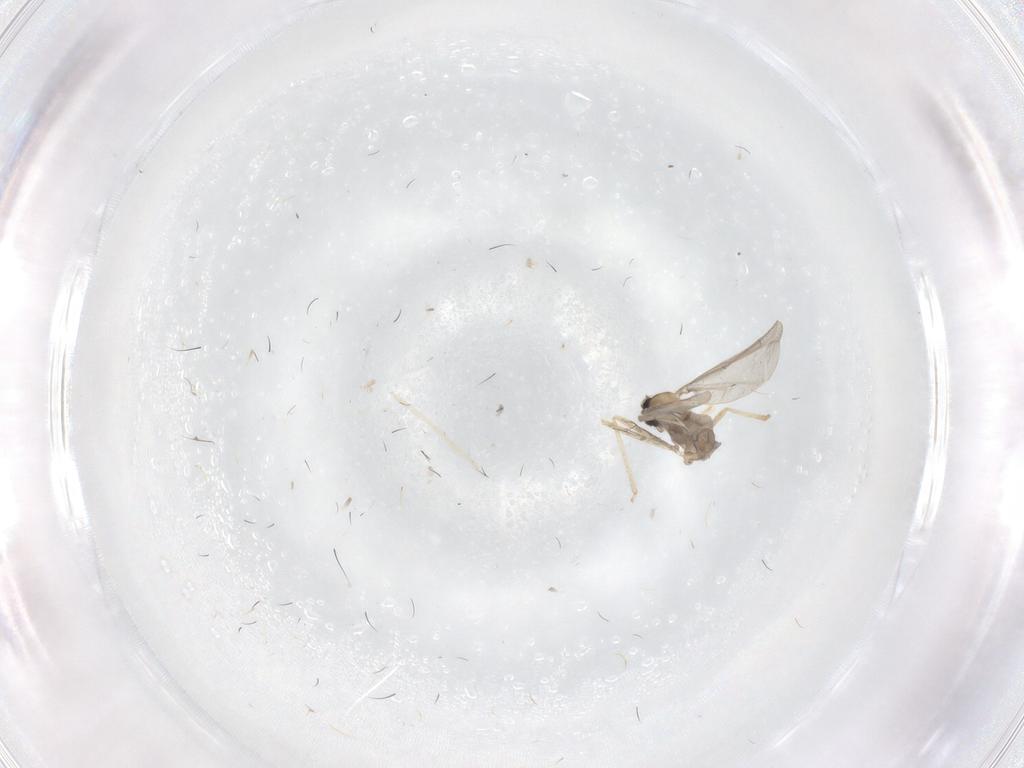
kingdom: Animalia
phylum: Arthropoda
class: Insecta
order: Diptera
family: Cecidomyiidae
